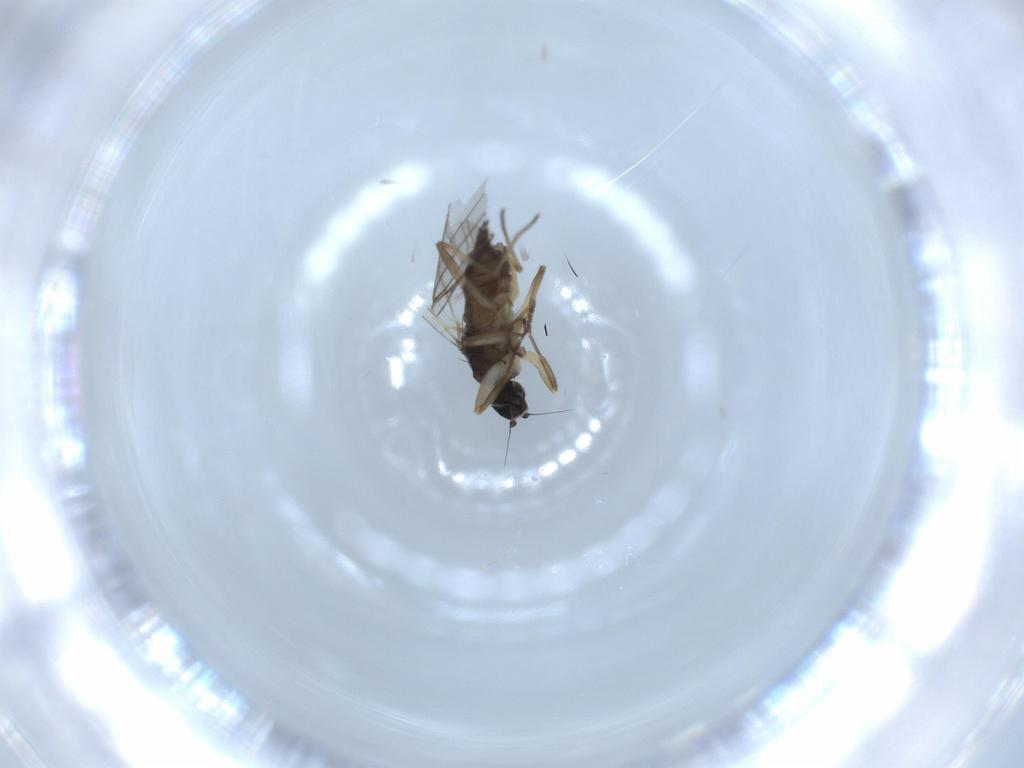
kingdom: Animalia
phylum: Arthropoda
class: Insecta
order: Diptera
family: Hybotidae
